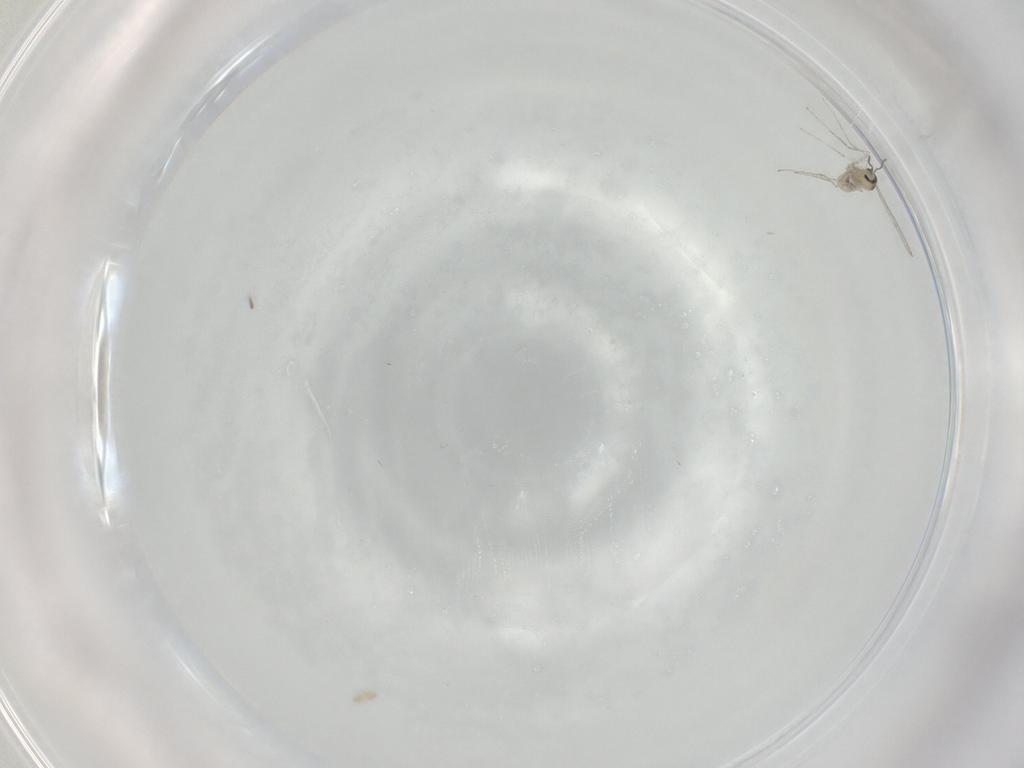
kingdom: Animalia
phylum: Arthropoda
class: Insecta
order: Diptera
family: Cecidomyiidae
